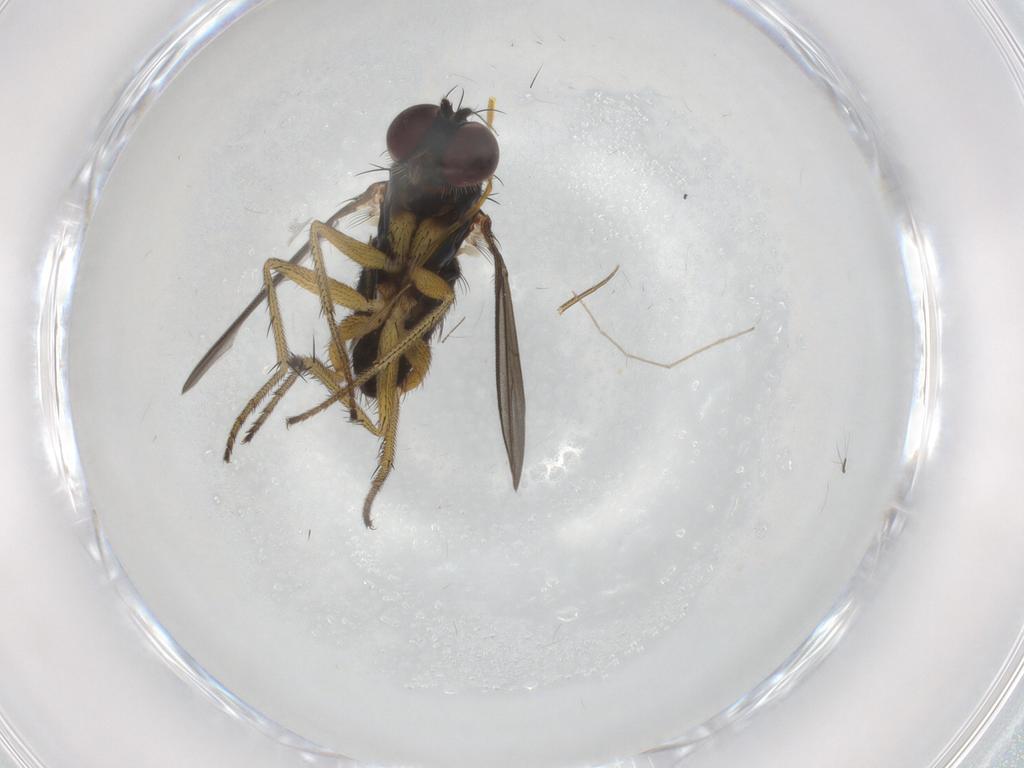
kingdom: Animalia
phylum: Arthropoda
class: Insecta
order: Diptera
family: Dolichopodidae
